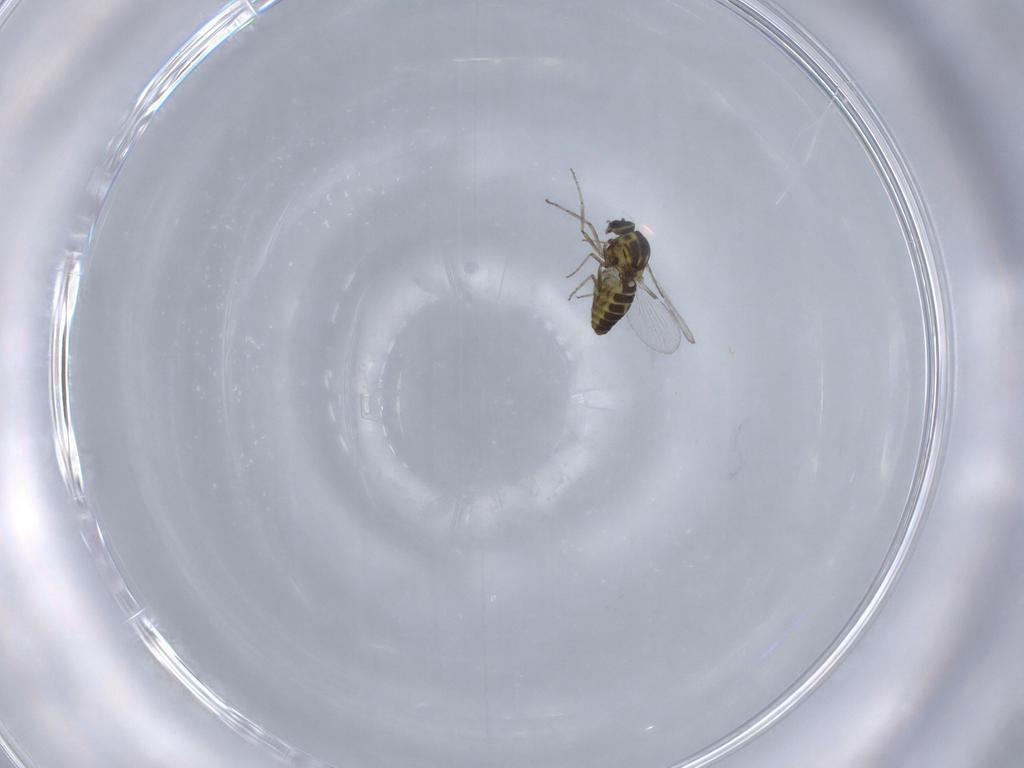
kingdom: Animalia
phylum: Arthropoda
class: Insecta
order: Diptera
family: Ceratopogonidae
